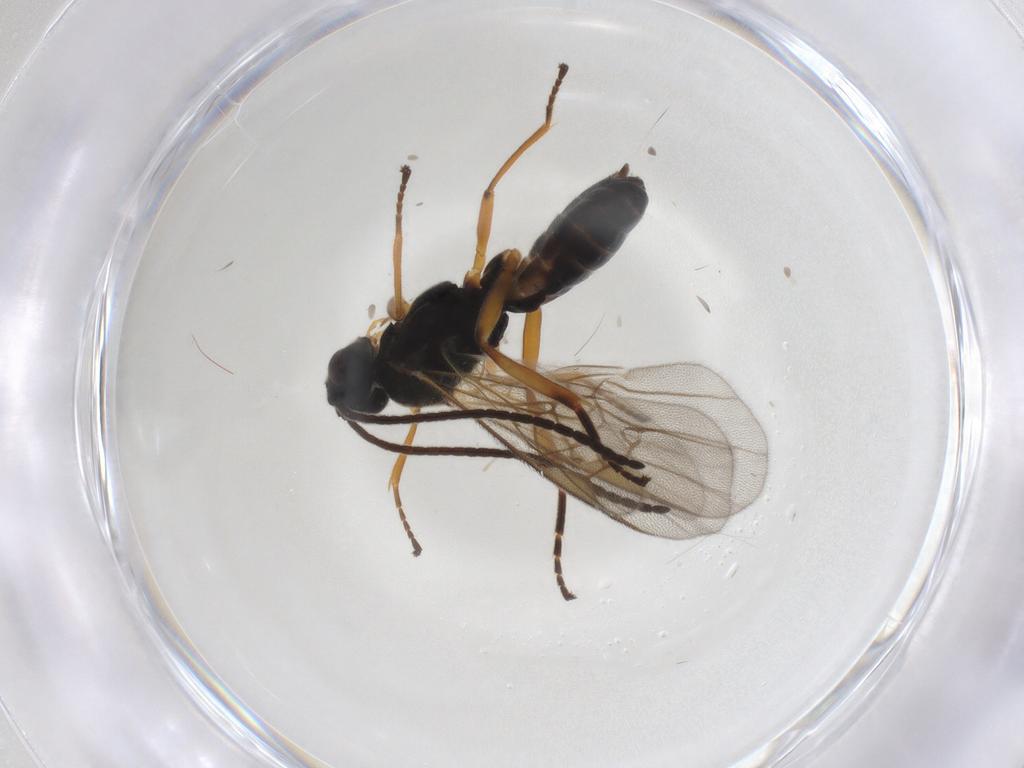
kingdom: Animalia
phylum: Arthropoda
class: Insecta
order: Hymenoptera
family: Braconidae
